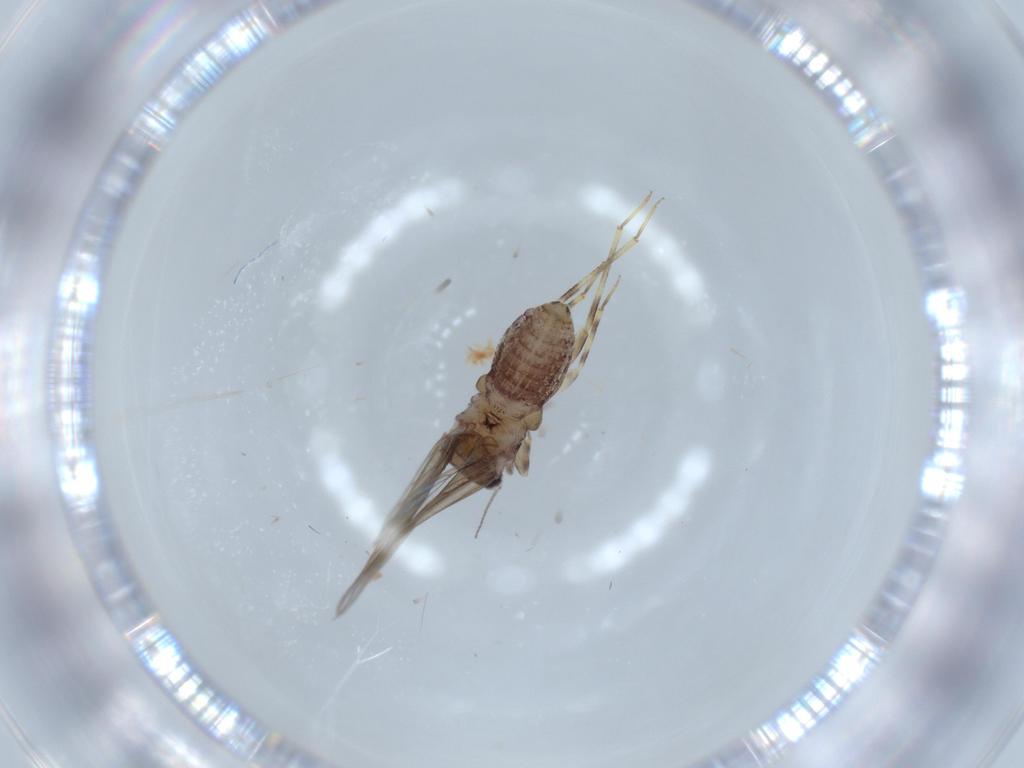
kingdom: Animalia
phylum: Arthropoda
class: Insecta
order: Psocodea
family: Lepidopsocidae
